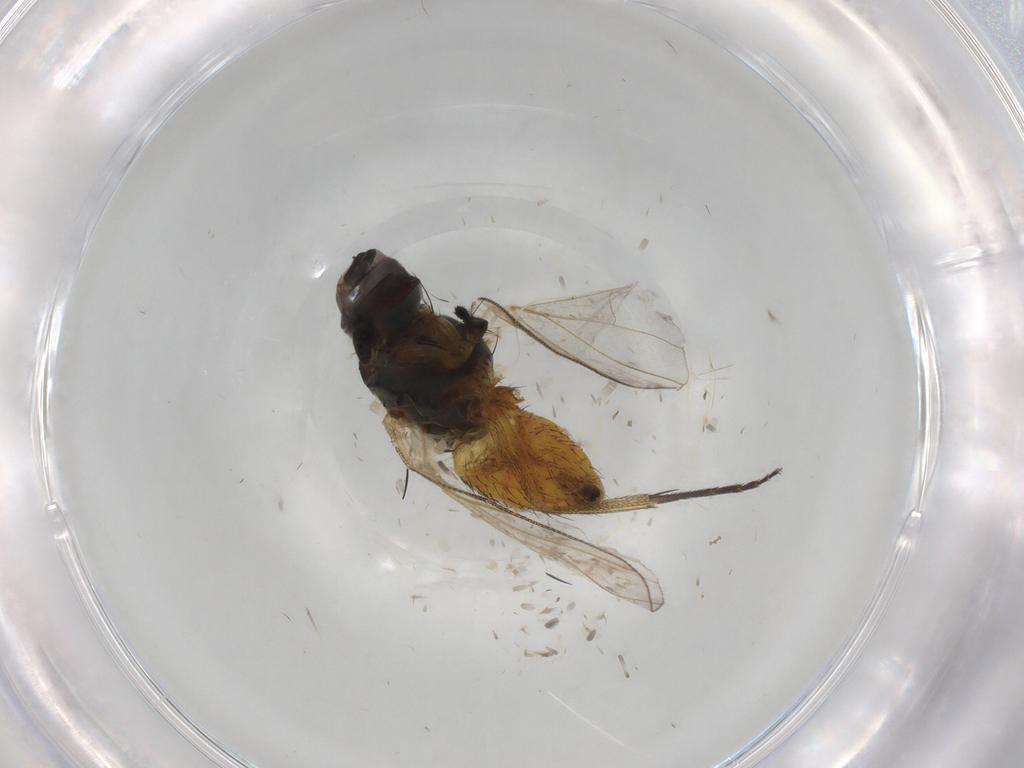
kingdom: Animalia
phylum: Arthropoda
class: Insecta
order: Diptera
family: Muscidae
